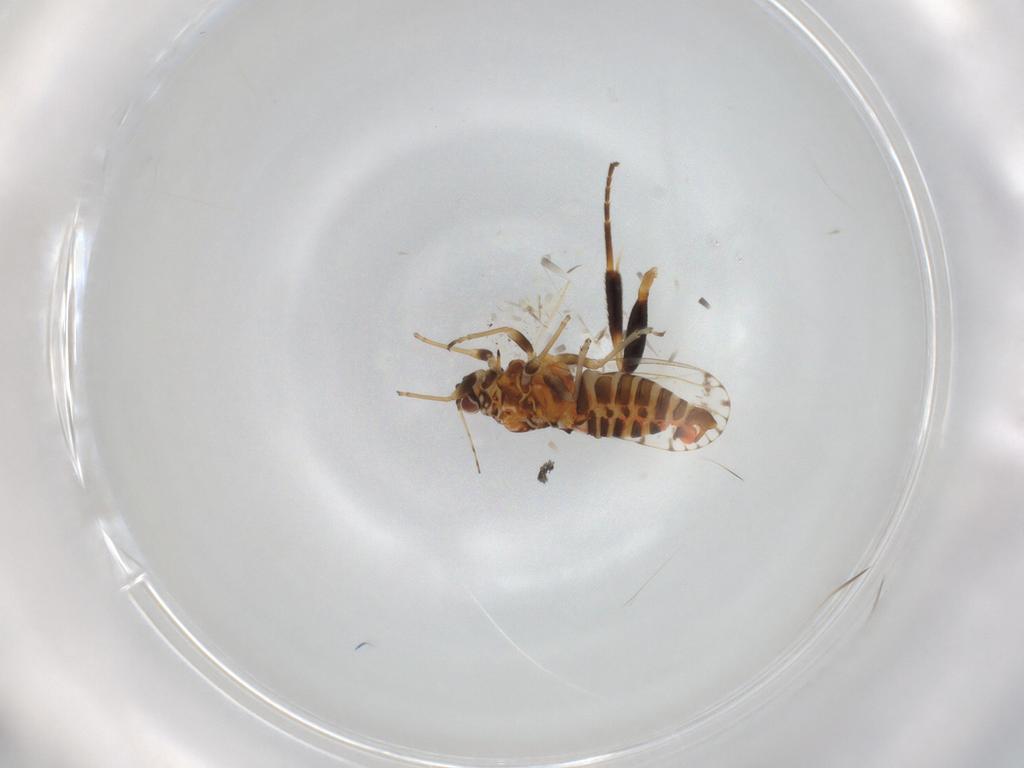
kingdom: Animalia
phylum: Arthropoda
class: Insecta
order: Hemiptera
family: Psyllidae
